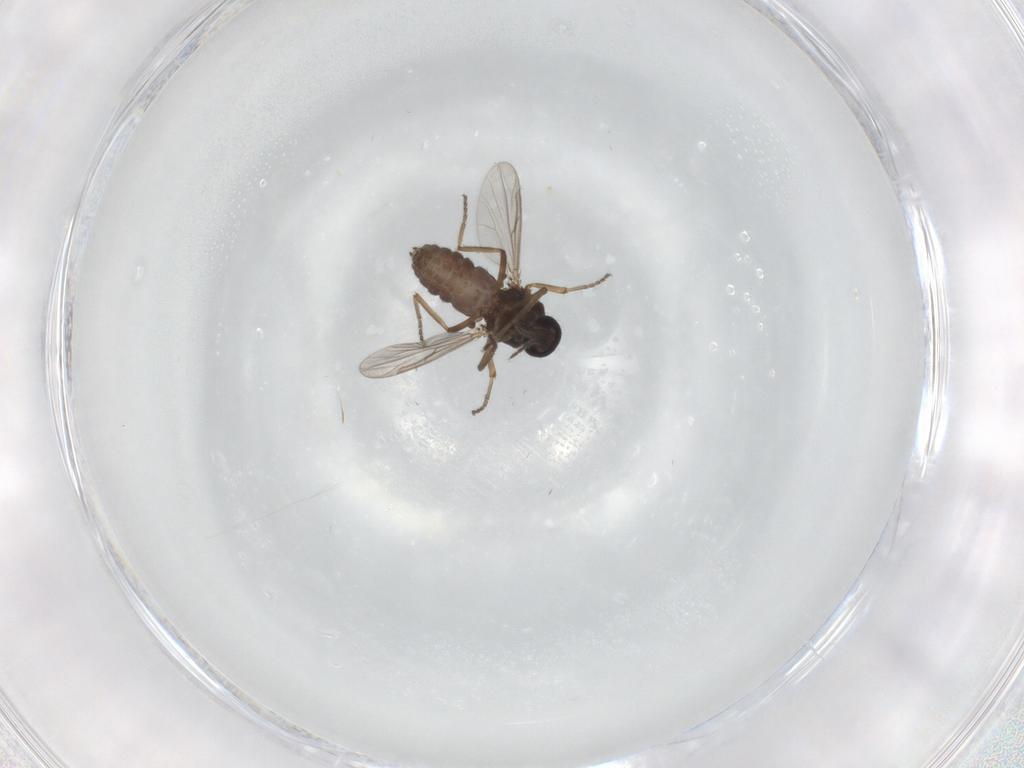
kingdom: Animalia
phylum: Arthropoda
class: Insecta
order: Diptera
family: Ceratopogonidae
